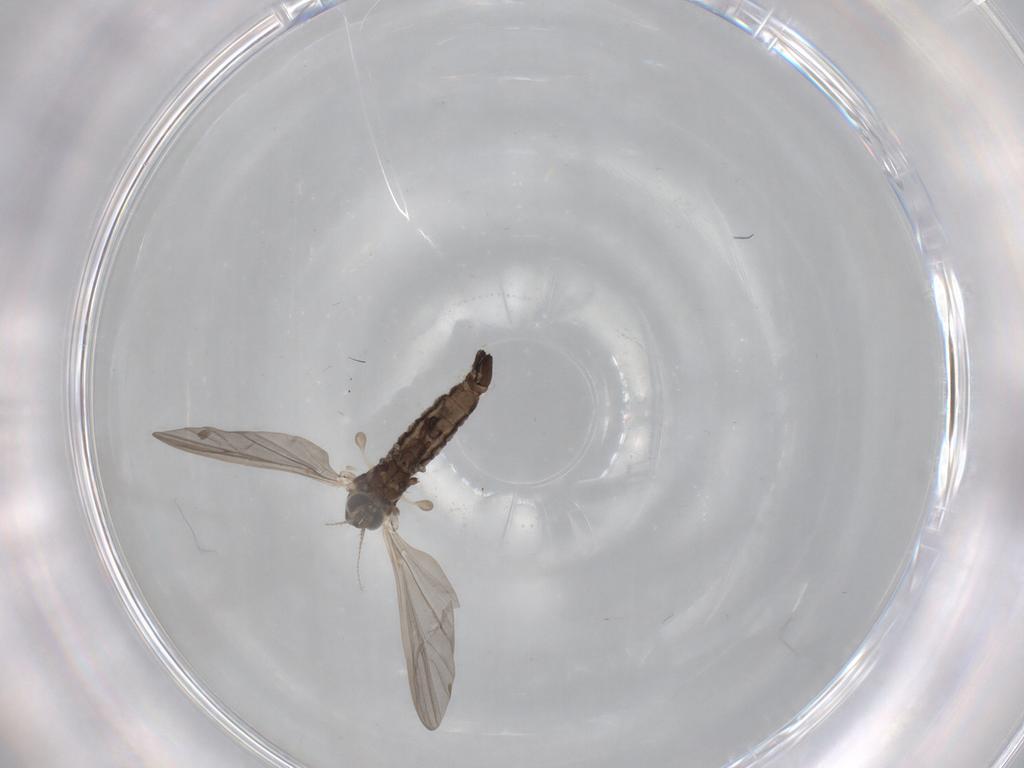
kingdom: Animalia
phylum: Arthropoda
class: Insecta
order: Diptera
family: Limoniidae
